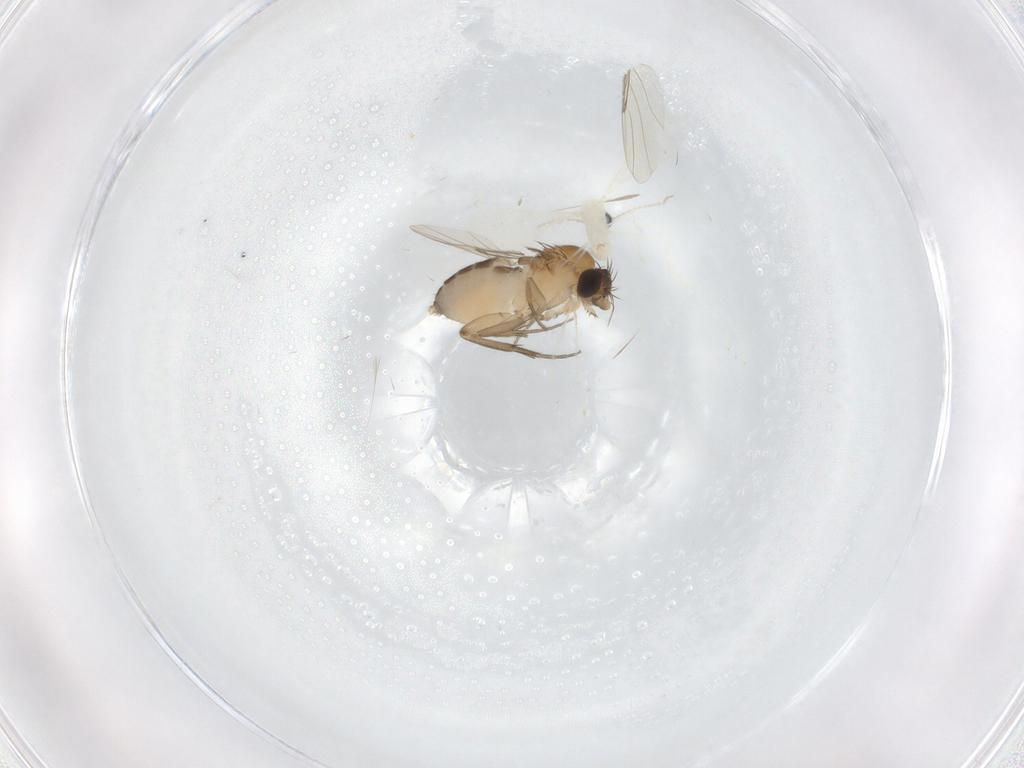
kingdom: Animalia
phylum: Arthropoda
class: Insecta
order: Diptera
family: Phoridae
